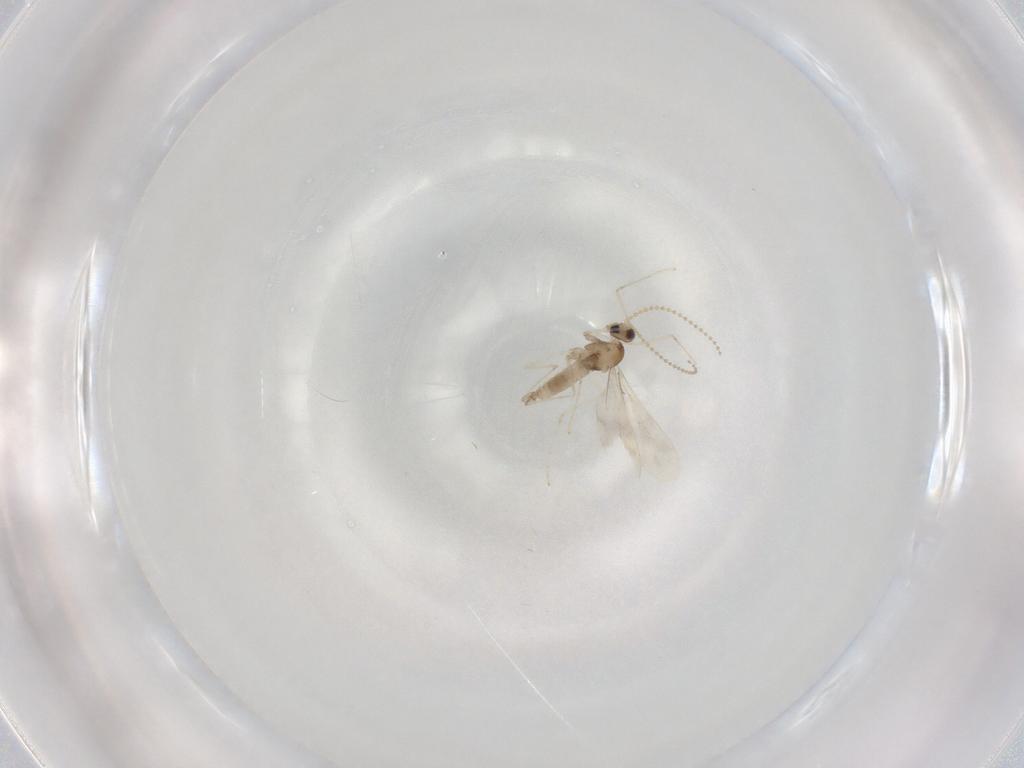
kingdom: Animalia
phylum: Arthropoda
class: Insecta
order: Diptera
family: Cecidomyiidae
